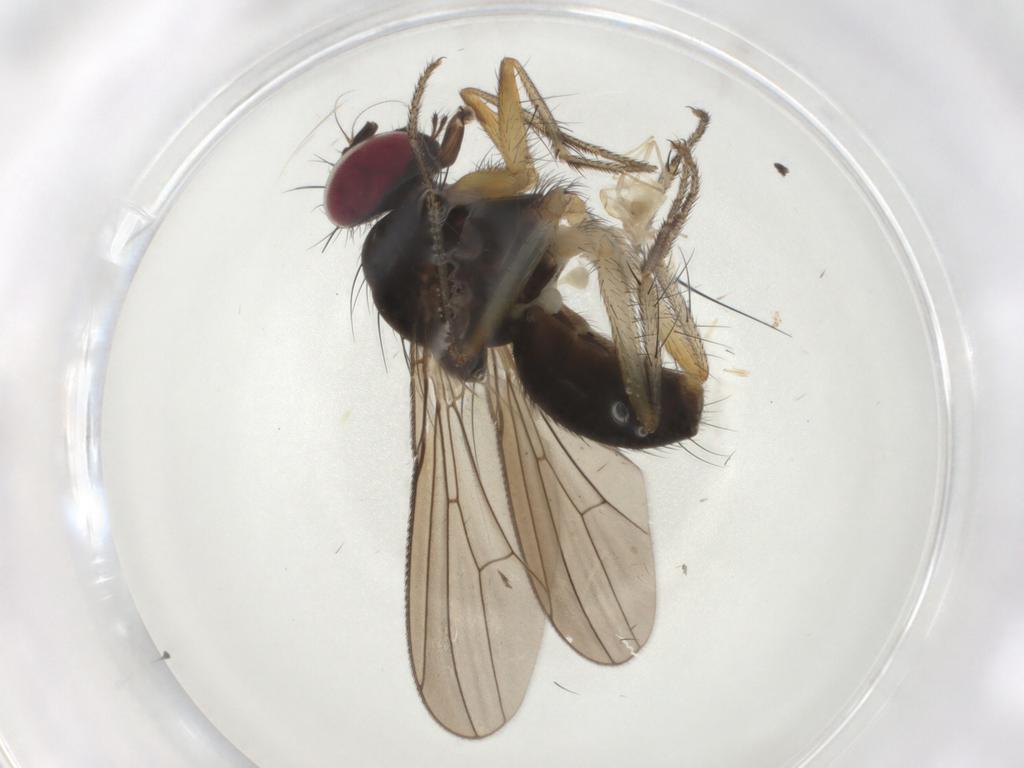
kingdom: Animalia
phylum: Arthropoda
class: Insecta
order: Diptera
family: Anthomyiidae
